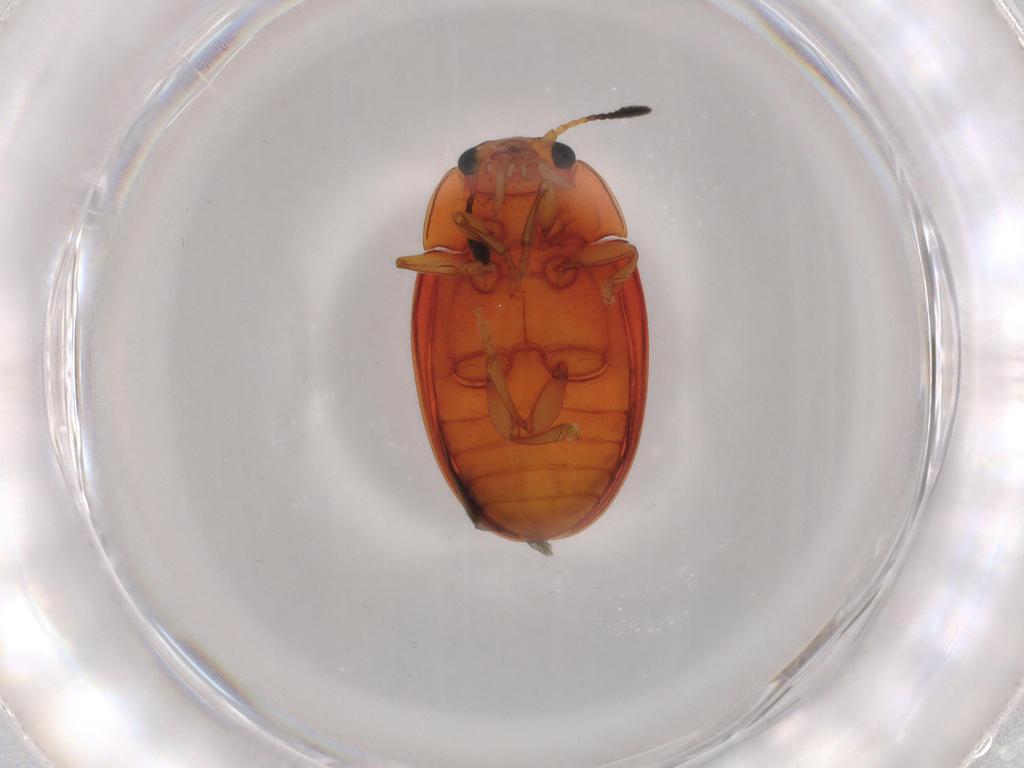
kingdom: Animalia
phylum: Arthropoda
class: Insecta
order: Coleoptera
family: Erotylidae
